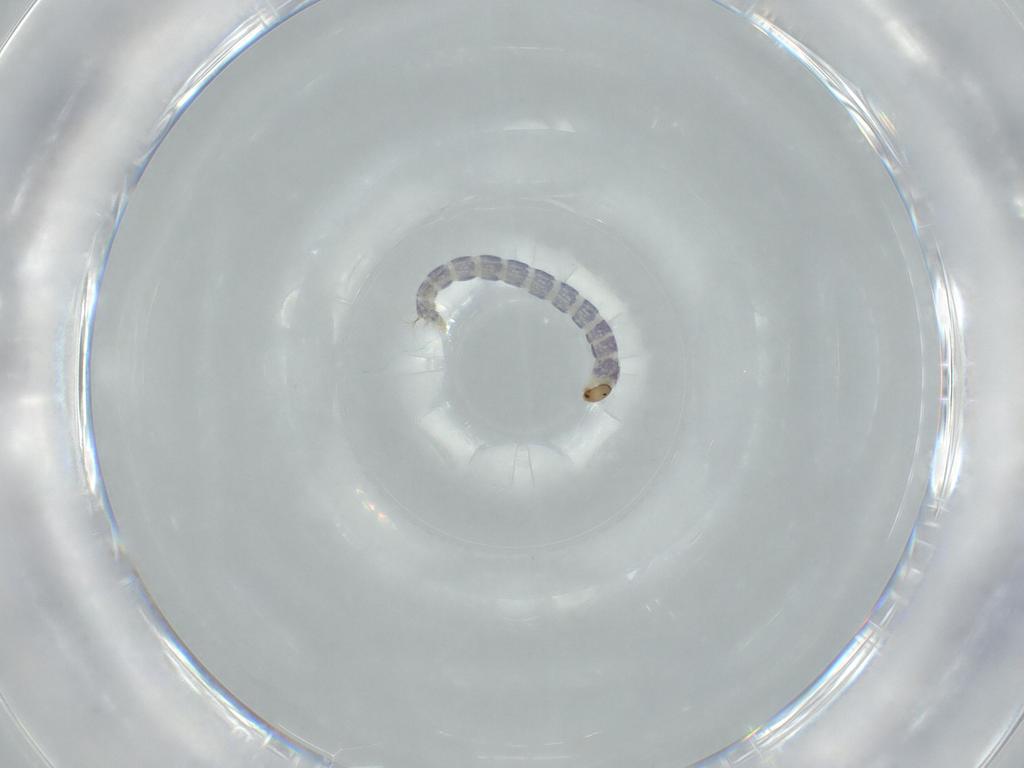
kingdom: Animalia
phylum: Arthropoda
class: Insecta
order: Diptera
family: Chironomidae
